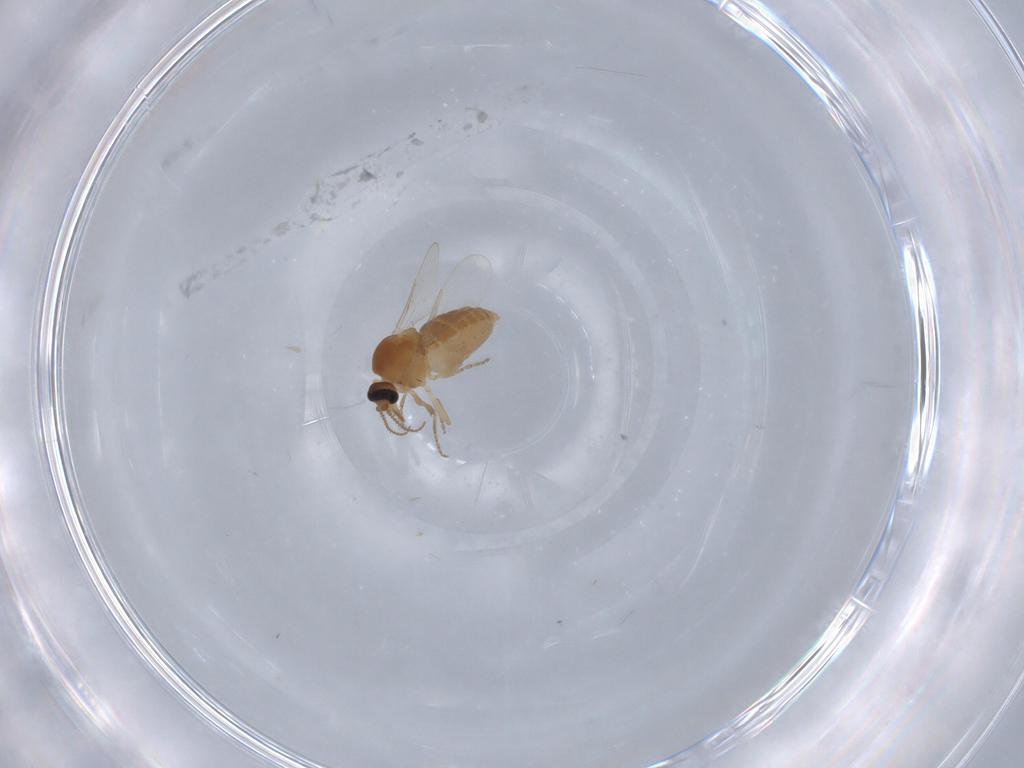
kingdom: Animalia
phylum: Arthropoda
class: Insecta
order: Diptera
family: Ceratopogonidae
